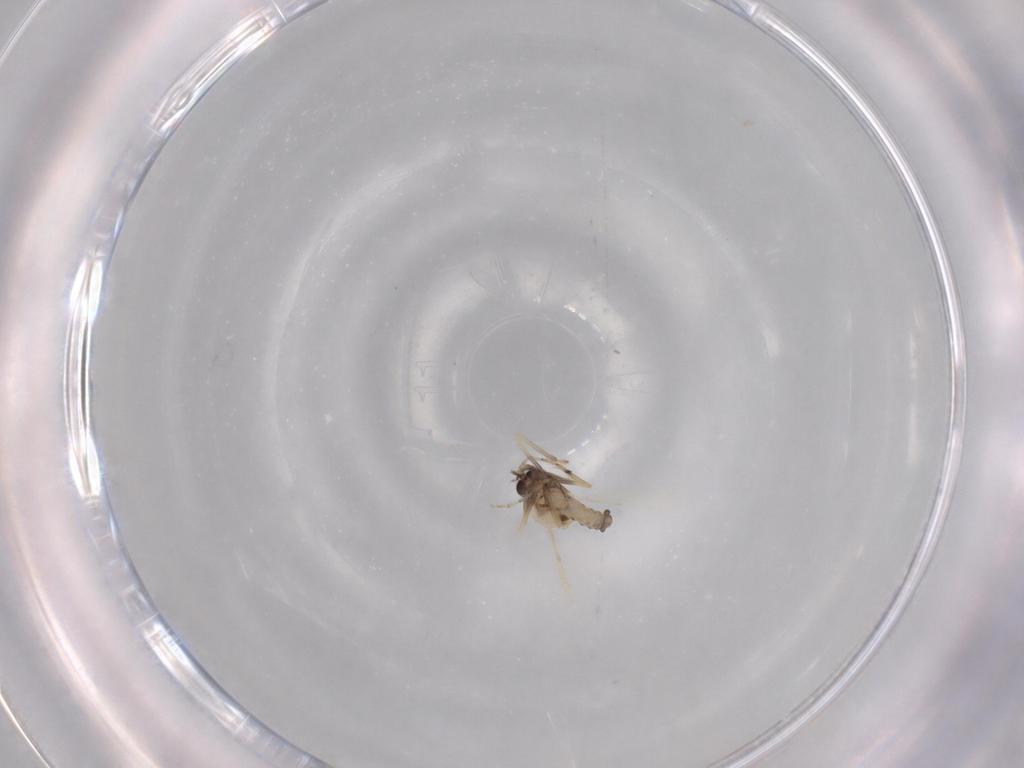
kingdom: Animalia
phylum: Arthropoda
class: Insecta
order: Diptera
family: Ceratopogonidae
